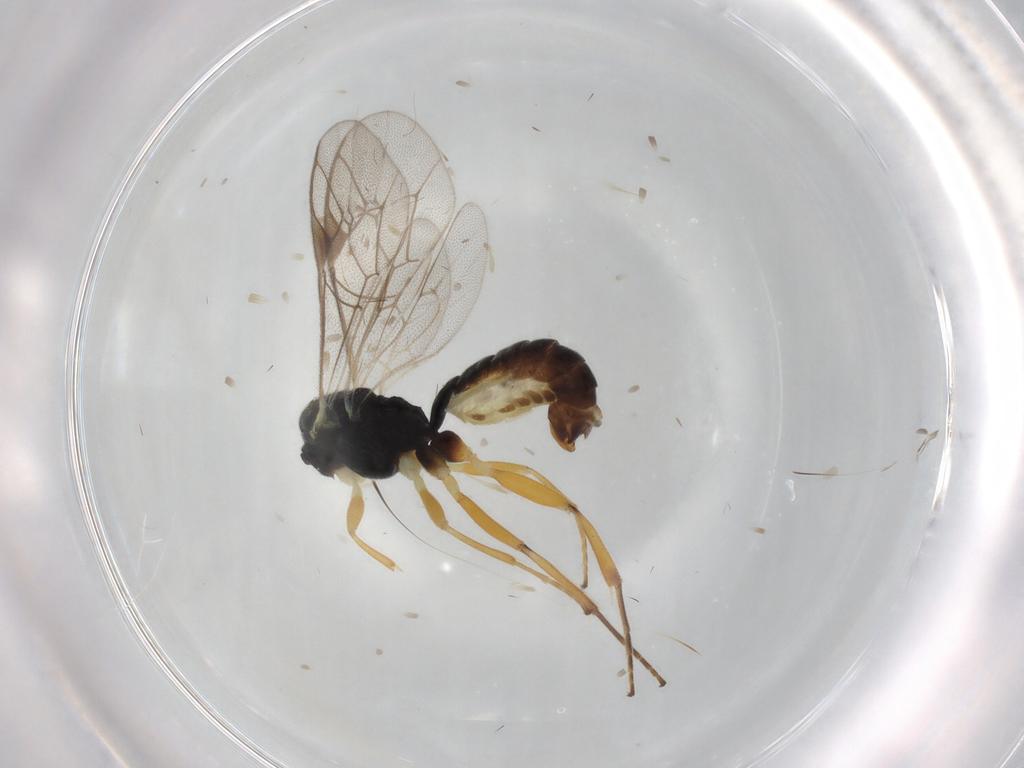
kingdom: Animalia
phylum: Arthropoda
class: Insecta
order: Hymenoptera
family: Ichneumonidae
